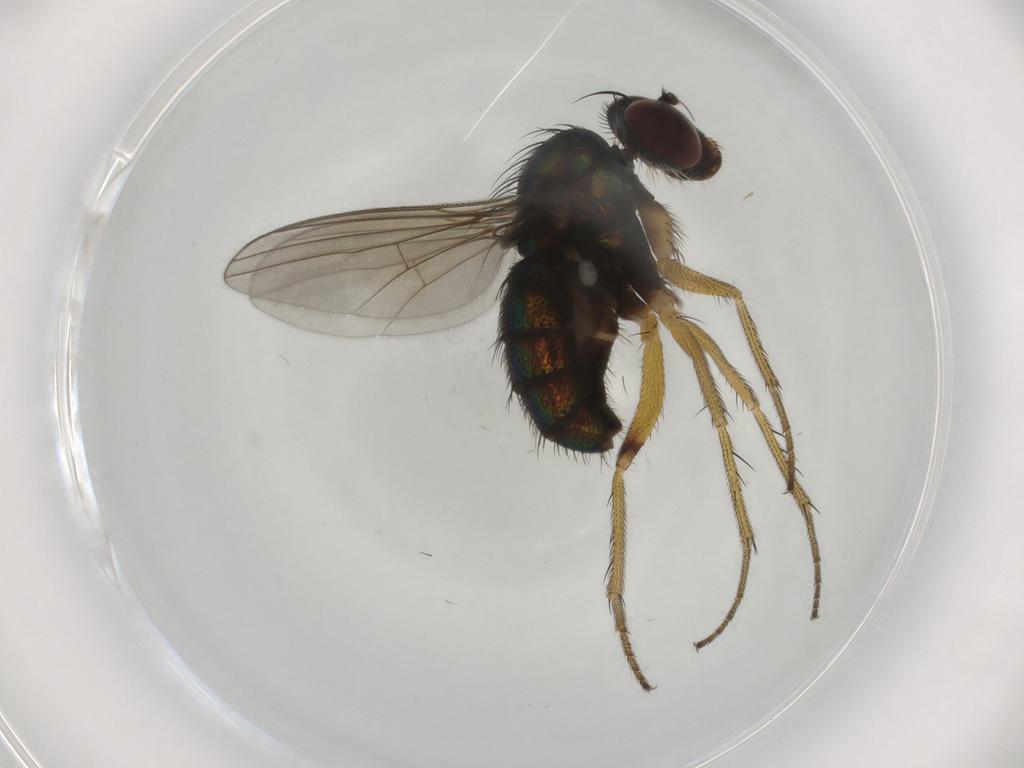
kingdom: Animalia
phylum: Arthropoda
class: Insecta
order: Diptera
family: Dolichopodidae
